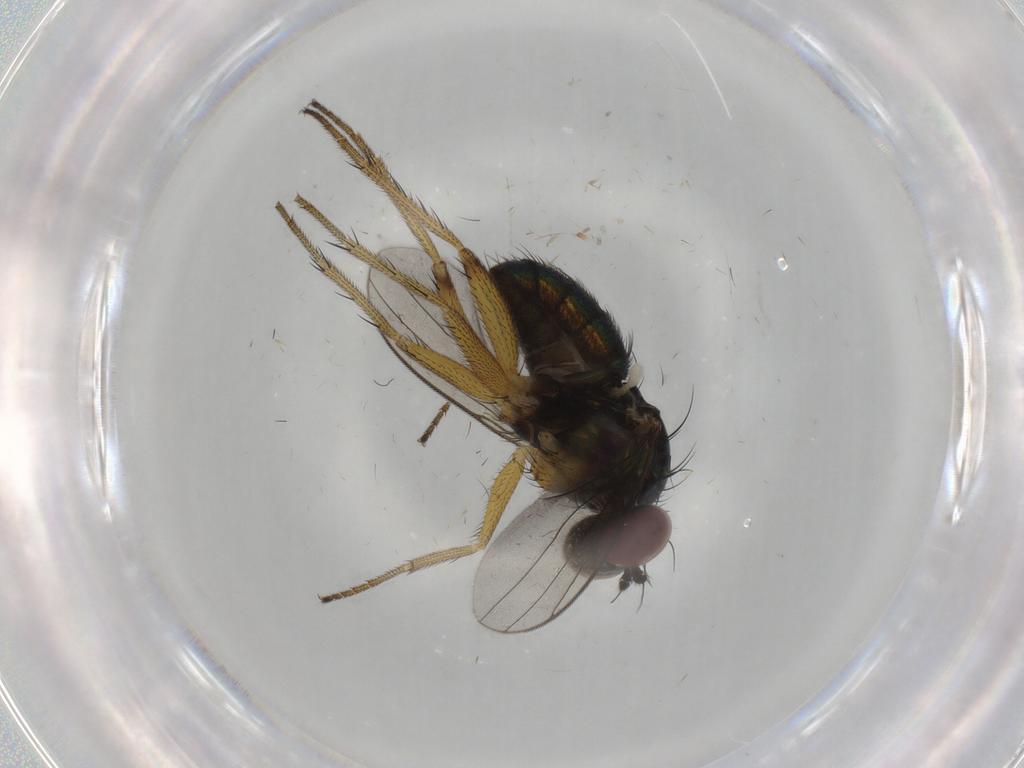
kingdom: Animalia
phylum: Arthropoda
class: Insecta
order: Diptera
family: Dolichopodidae
